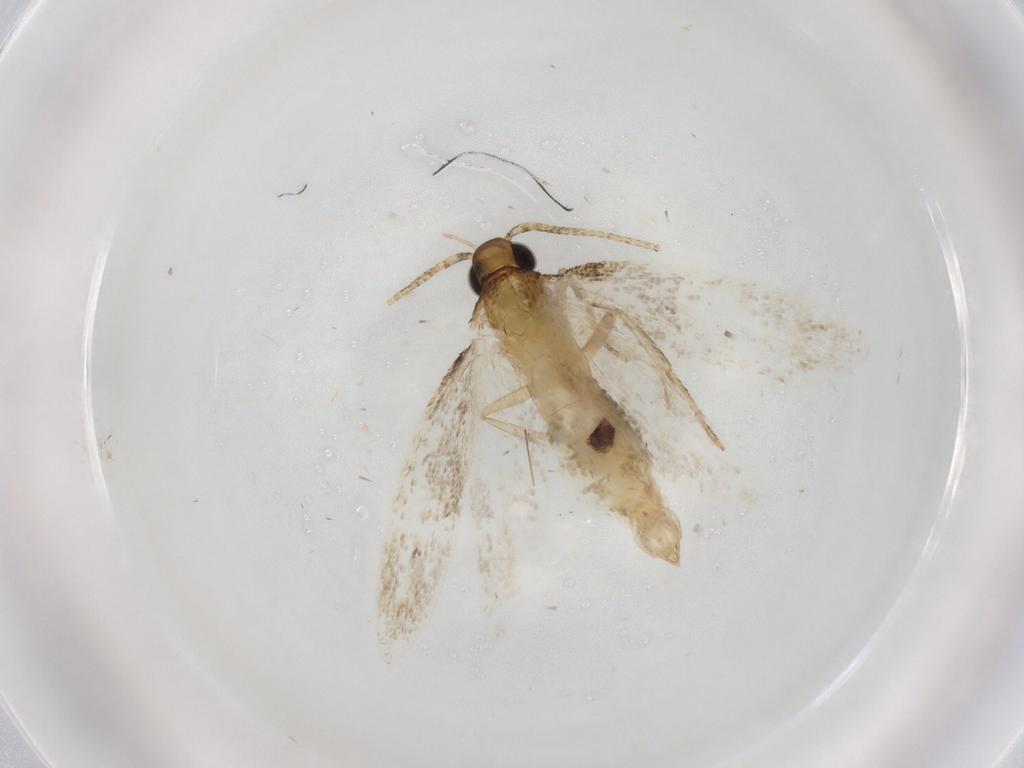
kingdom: Animalia
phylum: Arthropoda
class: Insecta
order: Lepidoptera
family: Lecithoceridae
